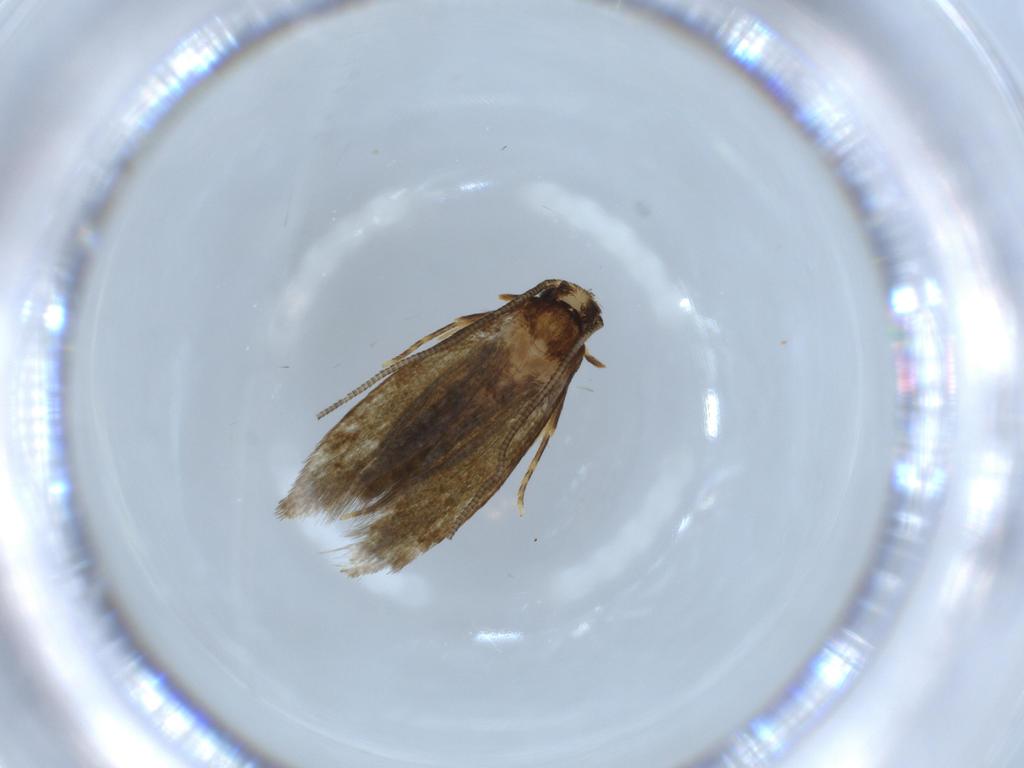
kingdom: Animalia
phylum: Arthropoda
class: Insecta
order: Lepidoptera
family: Tineidae
